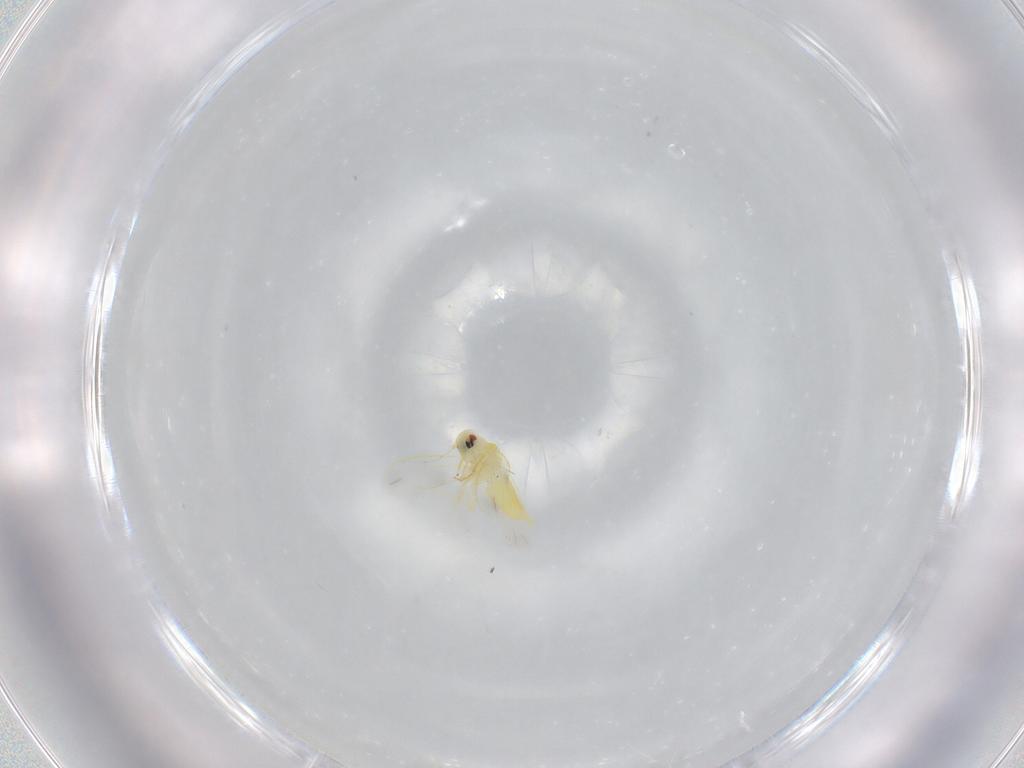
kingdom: Animalia
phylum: Arthropoda
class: Insecta
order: Hemiptera
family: Aleyrodidae
